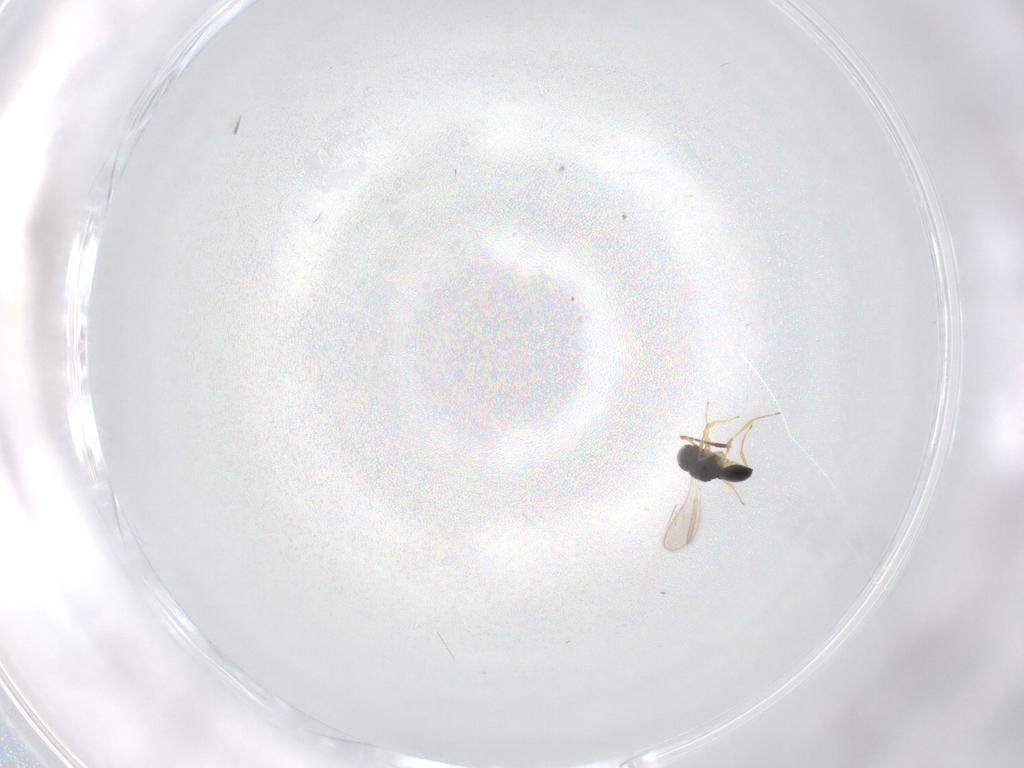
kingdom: Animalia
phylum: Arthropoda
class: Insecta
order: Hymenoptera
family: Scelionidae
